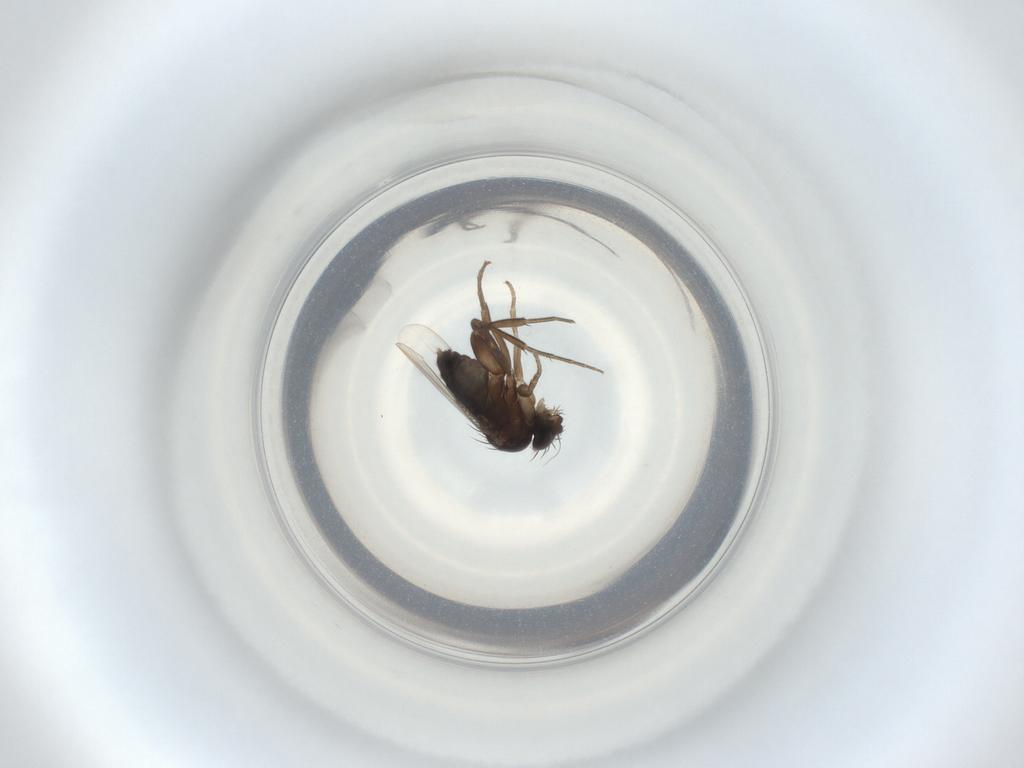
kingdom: Animalia
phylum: Arthropoda
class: Insecta
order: Diptera
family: Phoridae
